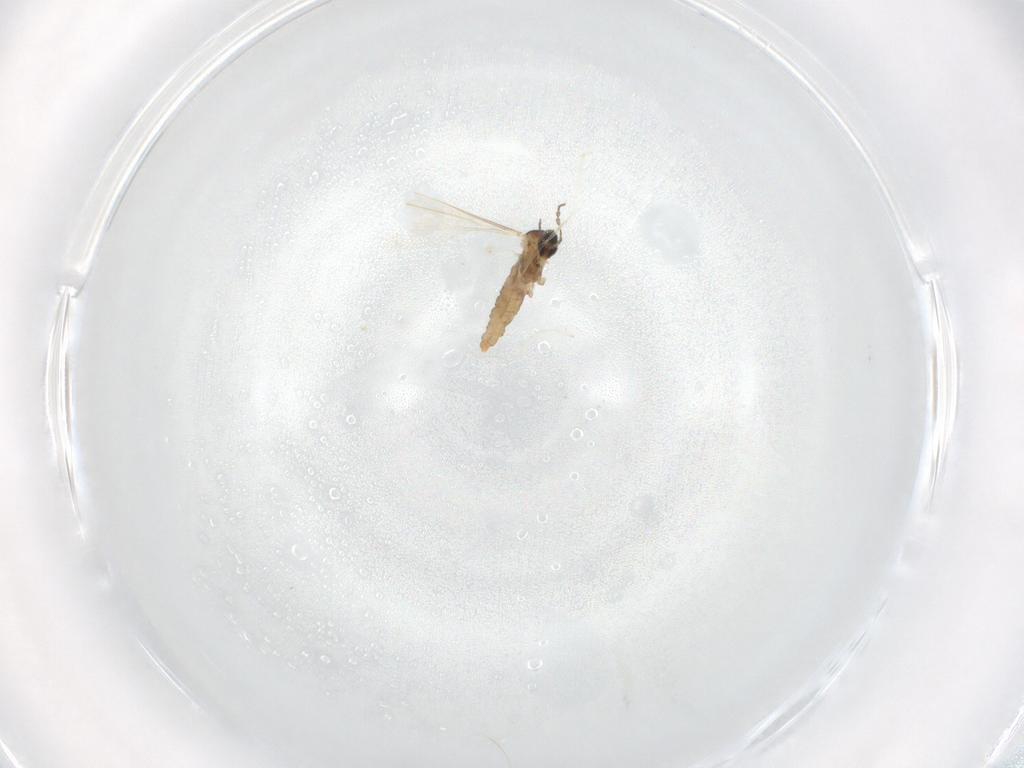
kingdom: Animalia
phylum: Arthropoda
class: Insecta
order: Diptera
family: Cecidomyiidae
